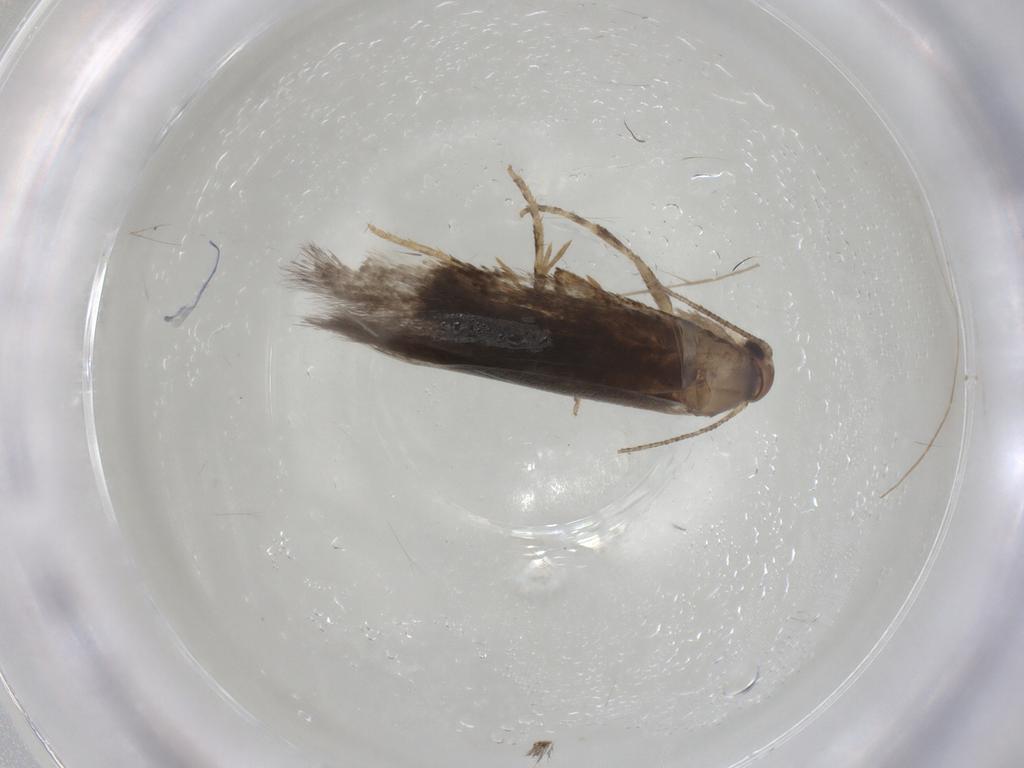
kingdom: Animalia
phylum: Arthropoda
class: Insecta
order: Lepidoptera
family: Elachistidae
